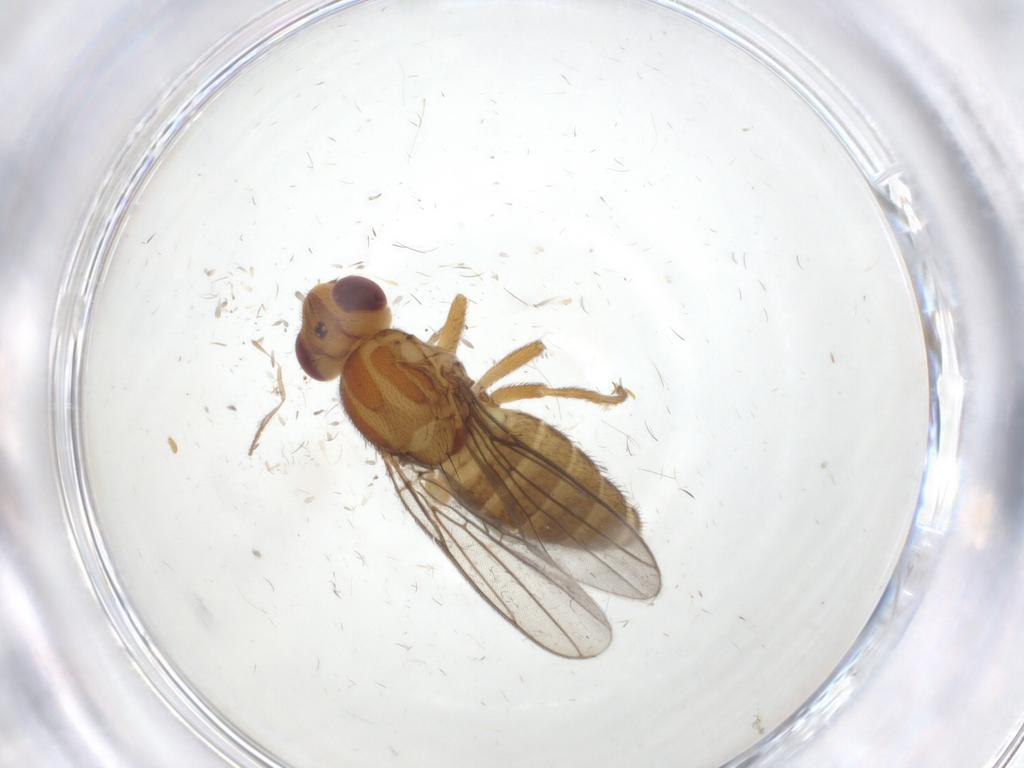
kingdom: Animalia
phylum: Arthropoda
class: Insecta
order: Diptera
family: Chloropidae
